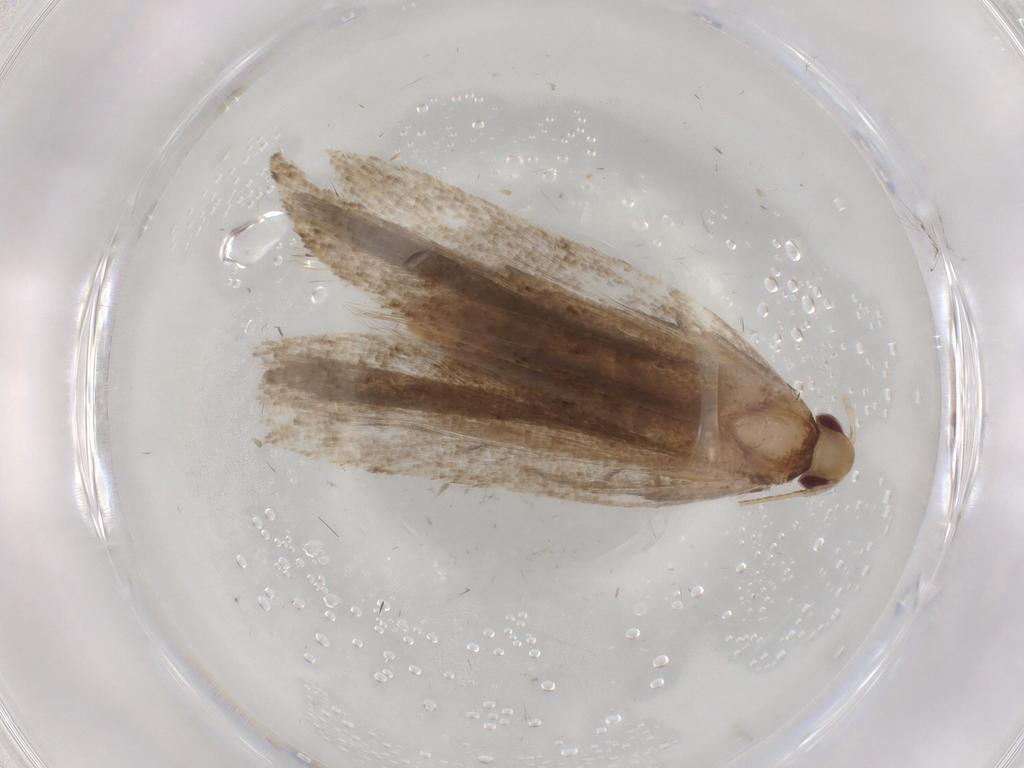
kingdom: Animalia
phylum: Arthropoda
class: Insecta
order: Lepidoptera
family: Gelechiidae
